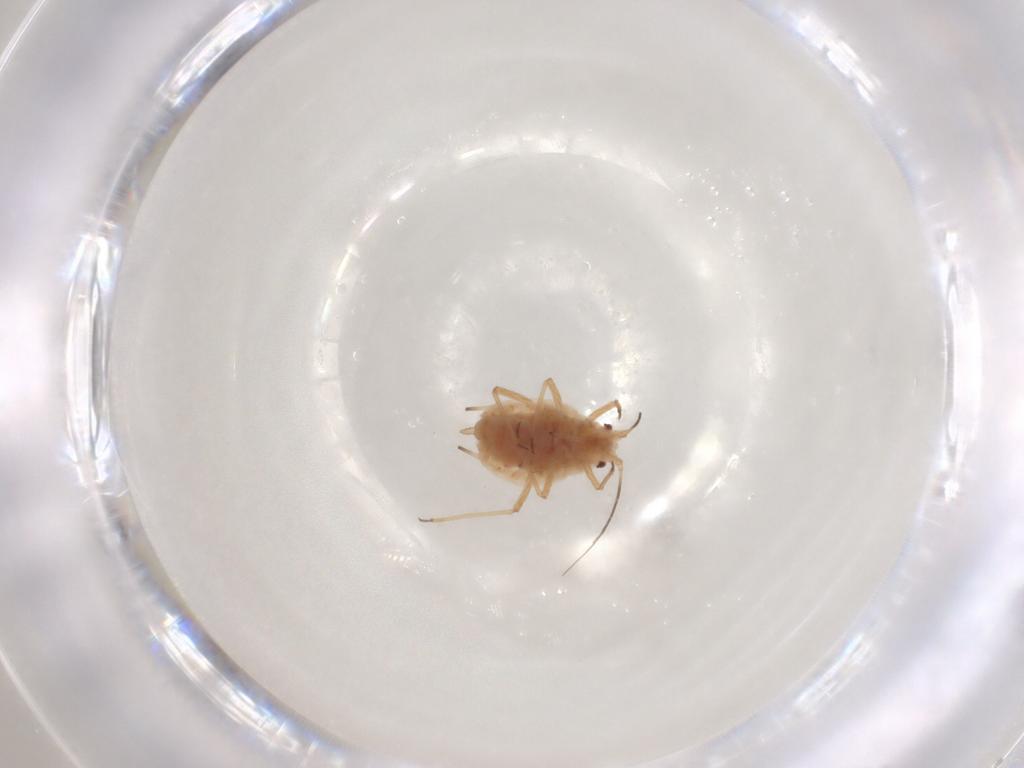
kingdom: Animalia
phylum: Arthropoda
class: Insecta
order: Hemiptera
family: Aphididae
